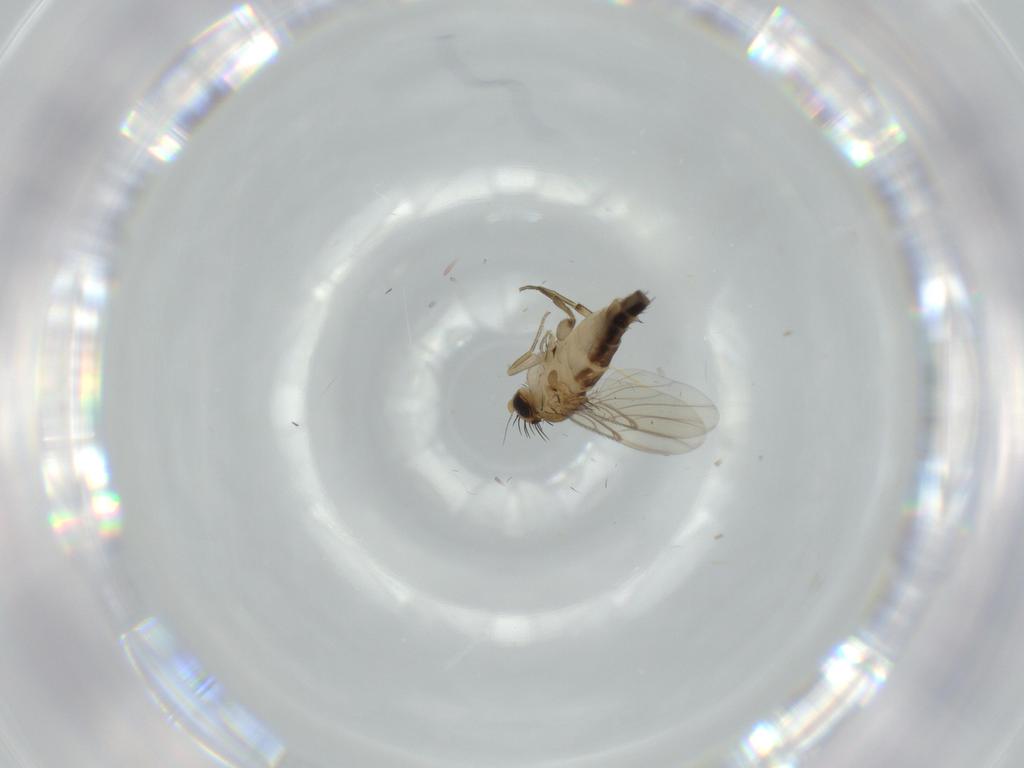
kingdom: Animalia
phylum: Arthropoda
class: Insecta
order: Diptera
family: Cecidomyiidae
